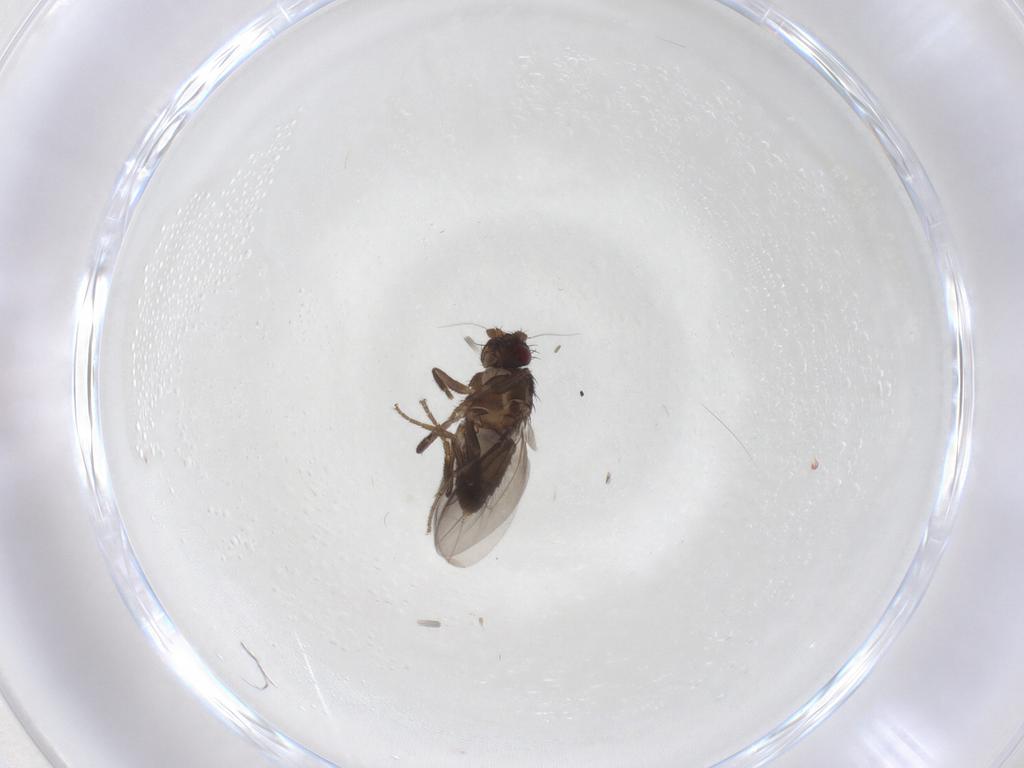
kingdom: Animalia
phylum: Arthropoda
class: Insecta
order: Diptera
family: Sphaeroceridae
